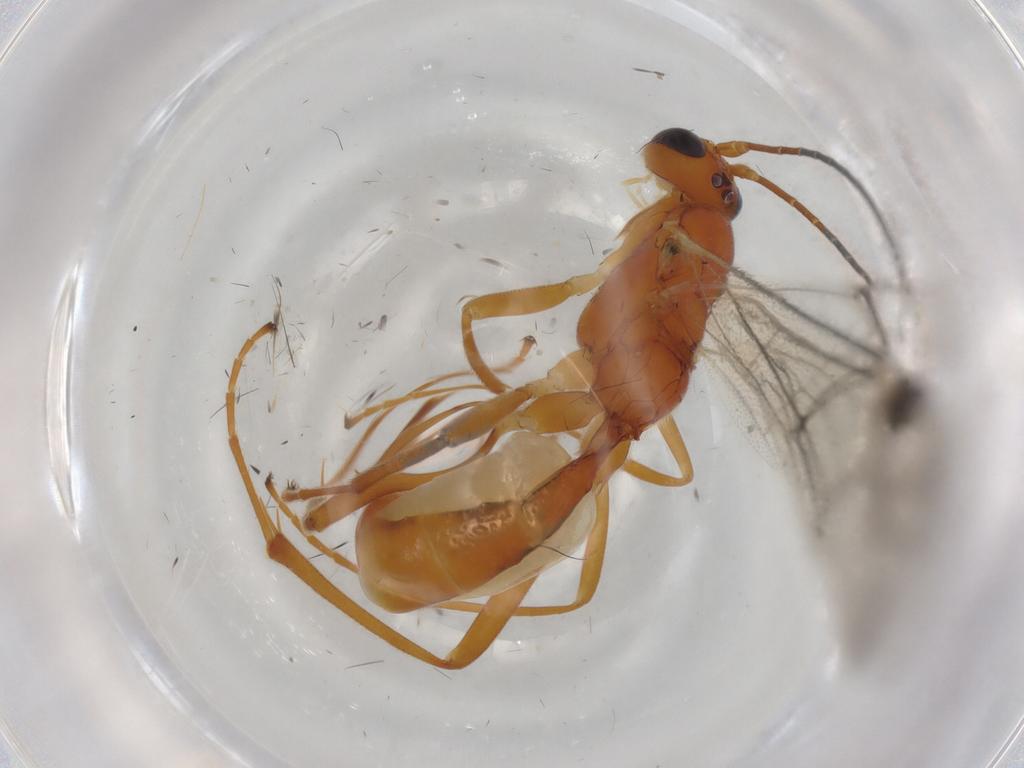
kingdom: Animalia
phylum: Arthropoda
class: Insecta
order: Hymenoptera
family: Ichneumonidae
